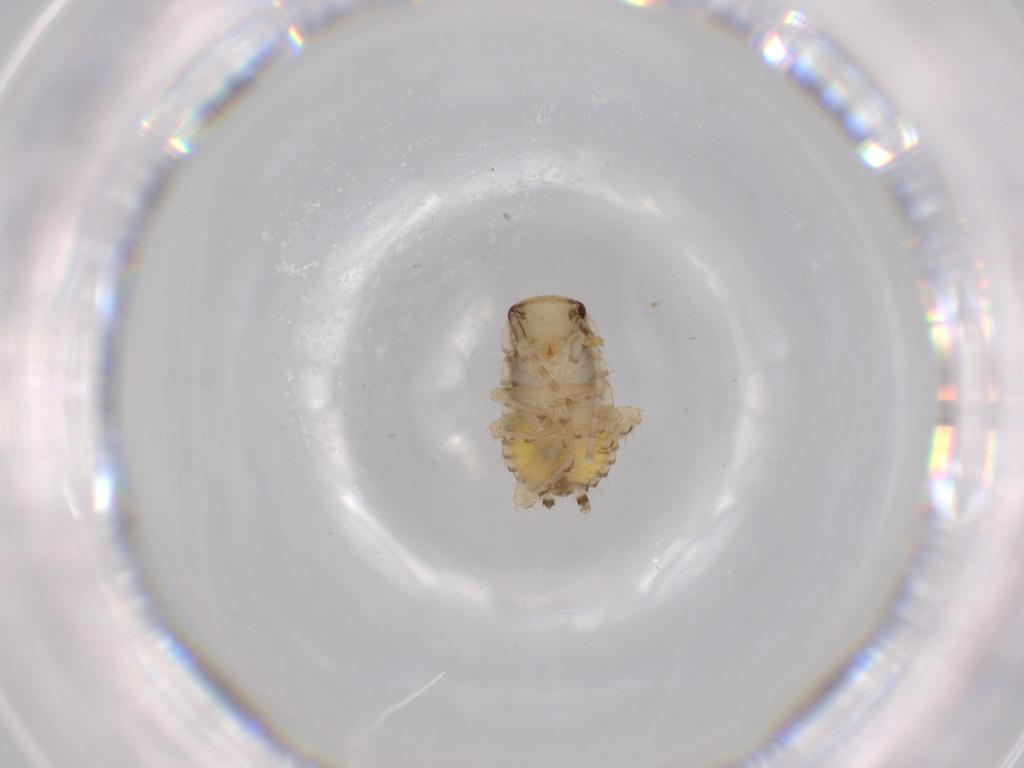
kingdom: Animalia
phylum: Arthropoda
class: Insecta
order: Blattodea
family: Ectobiidae
